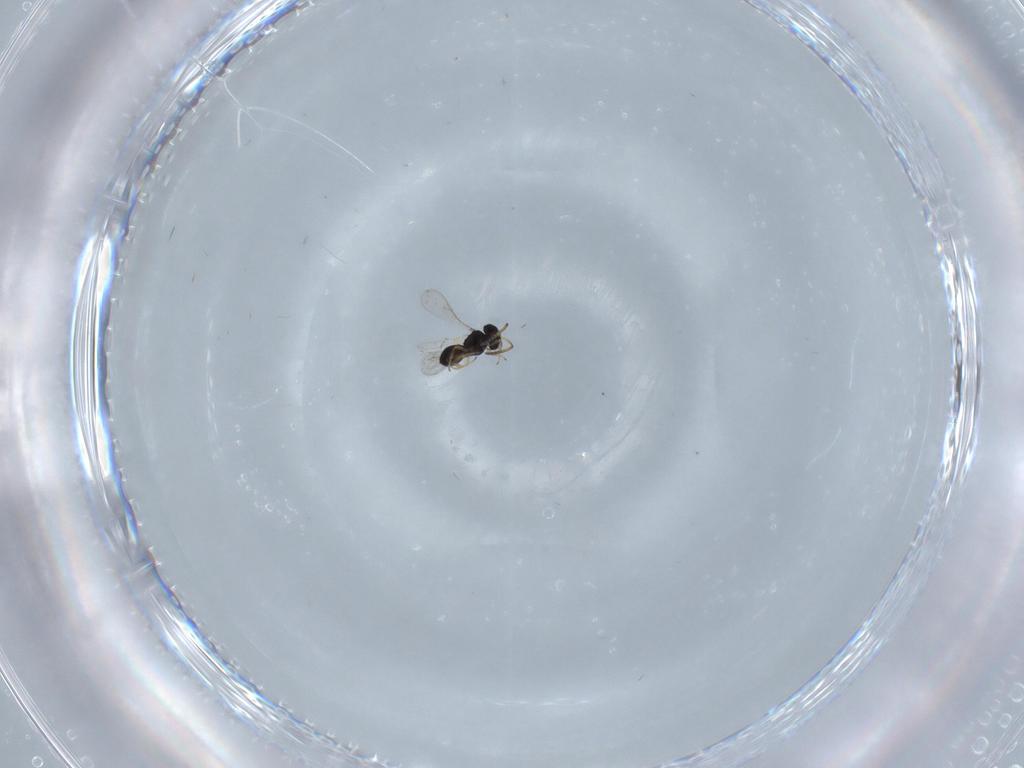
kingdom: Animalia
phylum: Arthropoda
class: Insecta
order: Hymenoptera
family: Scelionidae
